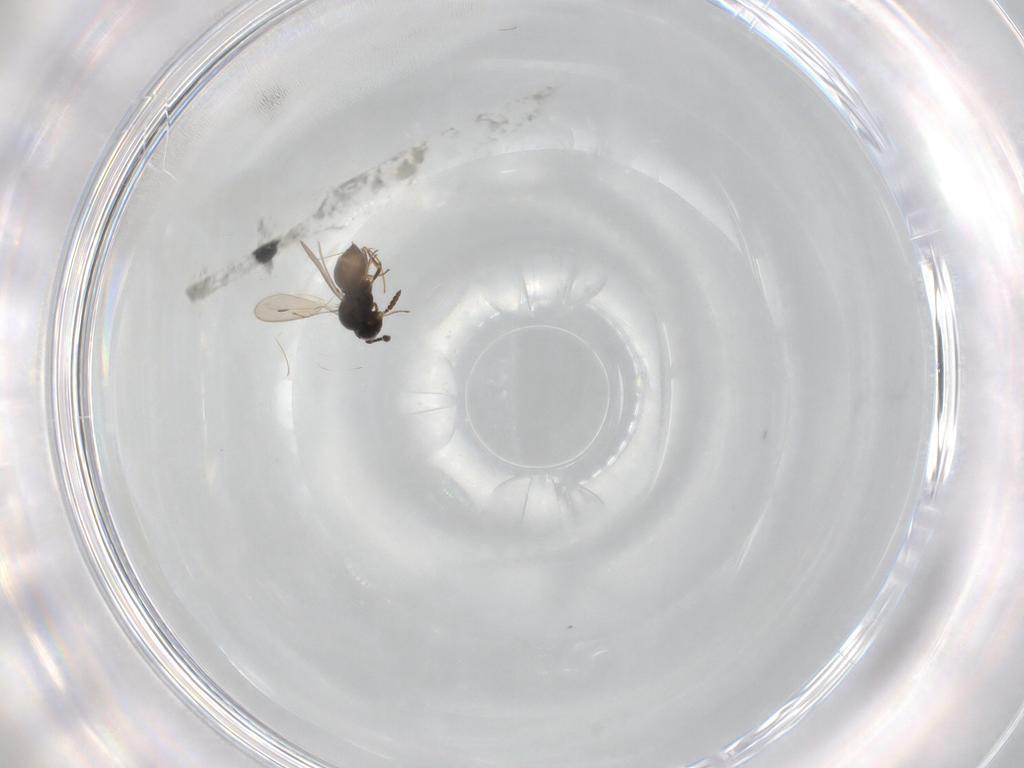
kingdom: Animalia
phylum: Arthropoda
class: Insecta
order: Hymenoptera
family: Scelionidae
